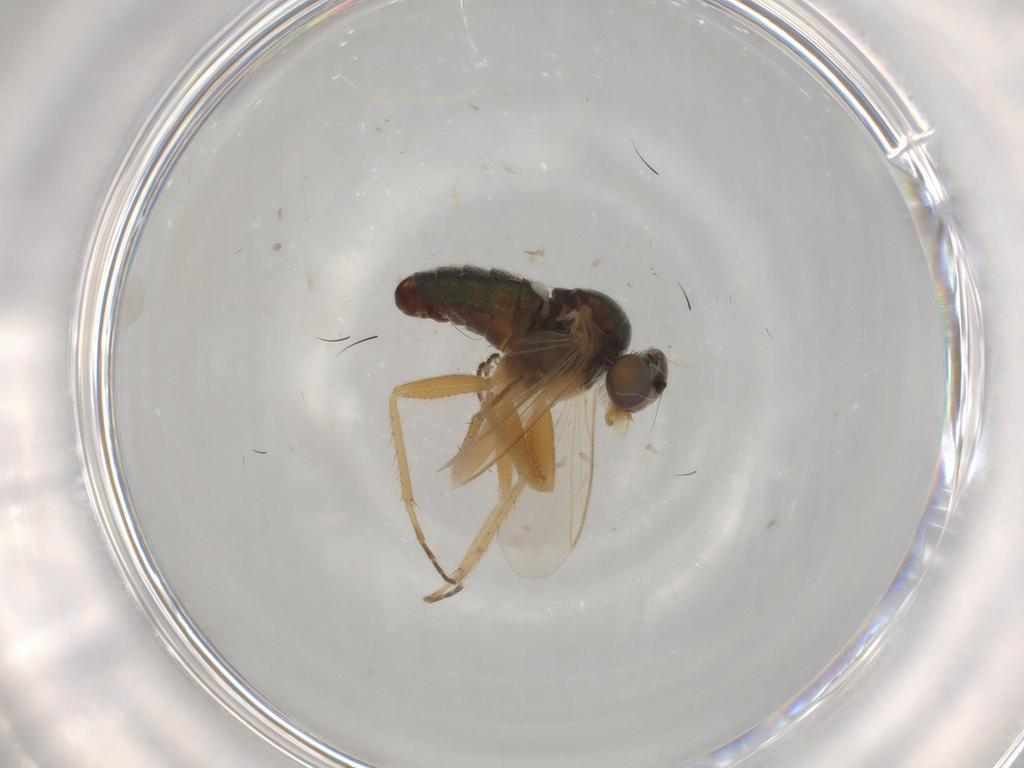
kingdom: Animalia
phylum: Arthropoda
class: Insecta
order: Diptera
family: Dolichopodidae
